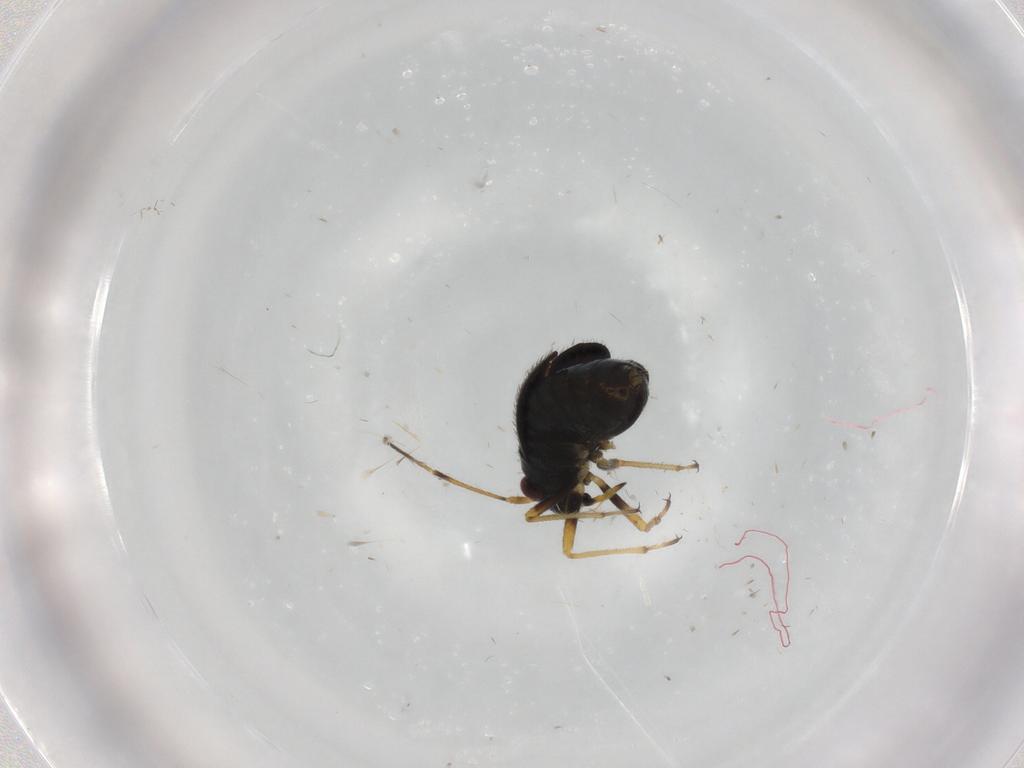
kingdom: Animalia
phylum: Arthropoda
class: Insecta
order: Hemiptera
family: Miridae
